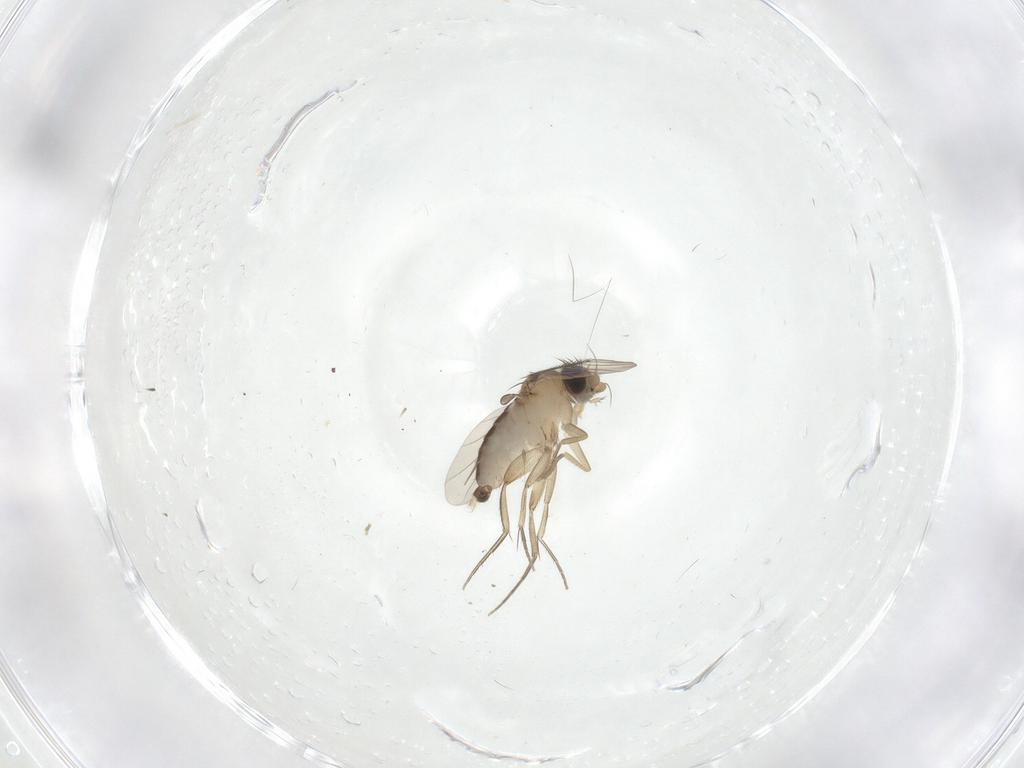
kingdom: Animalia
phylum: Arthropoda
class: Insecta
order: Diptera
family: Phoridae
